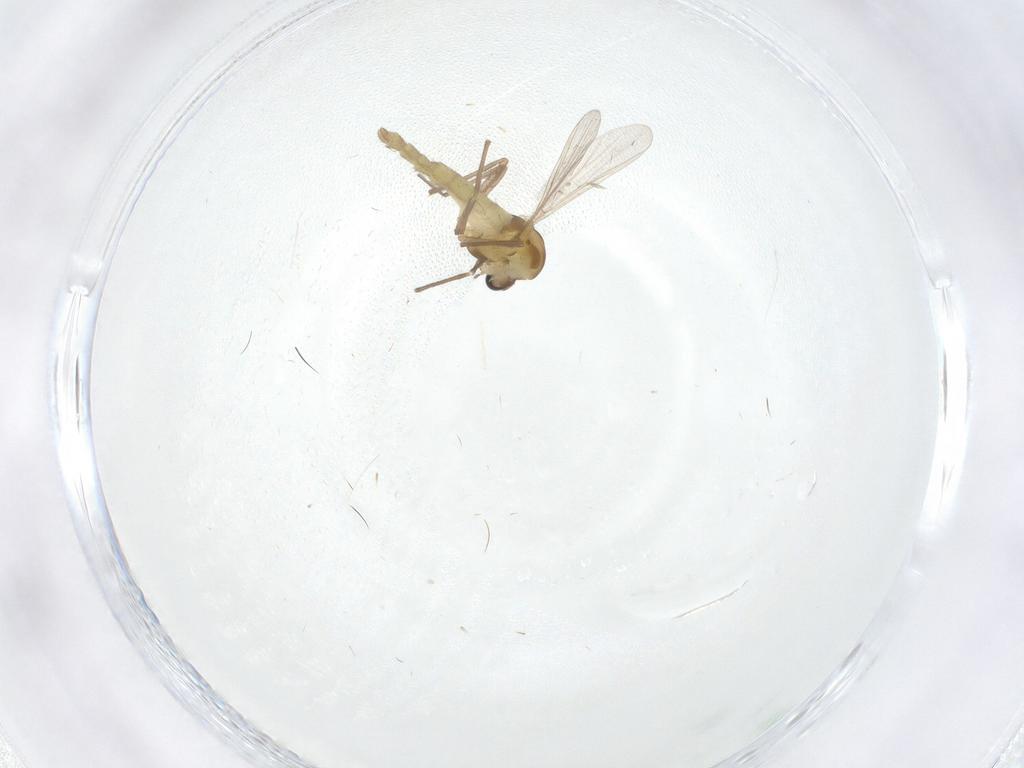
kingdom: Animalia
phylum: Arthropoda
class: Insecta
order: Diptera
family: Chironomidae
